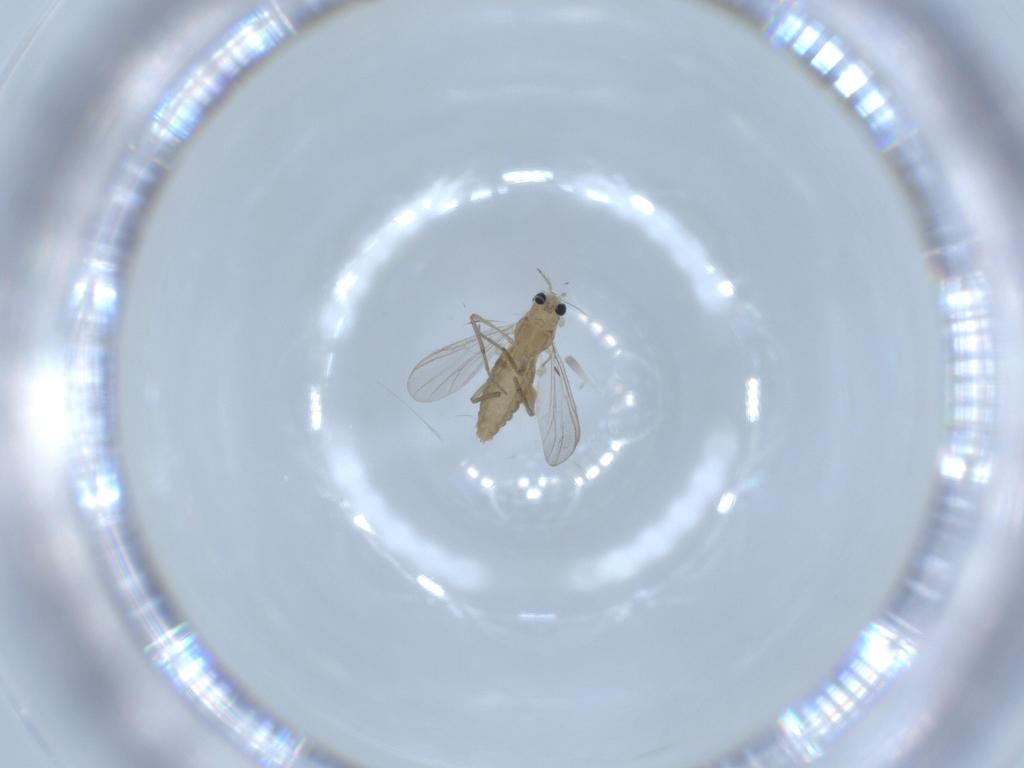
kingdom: Animalia
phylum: Arthropoda
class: Insecta
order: Diptera
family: Chironomidae
